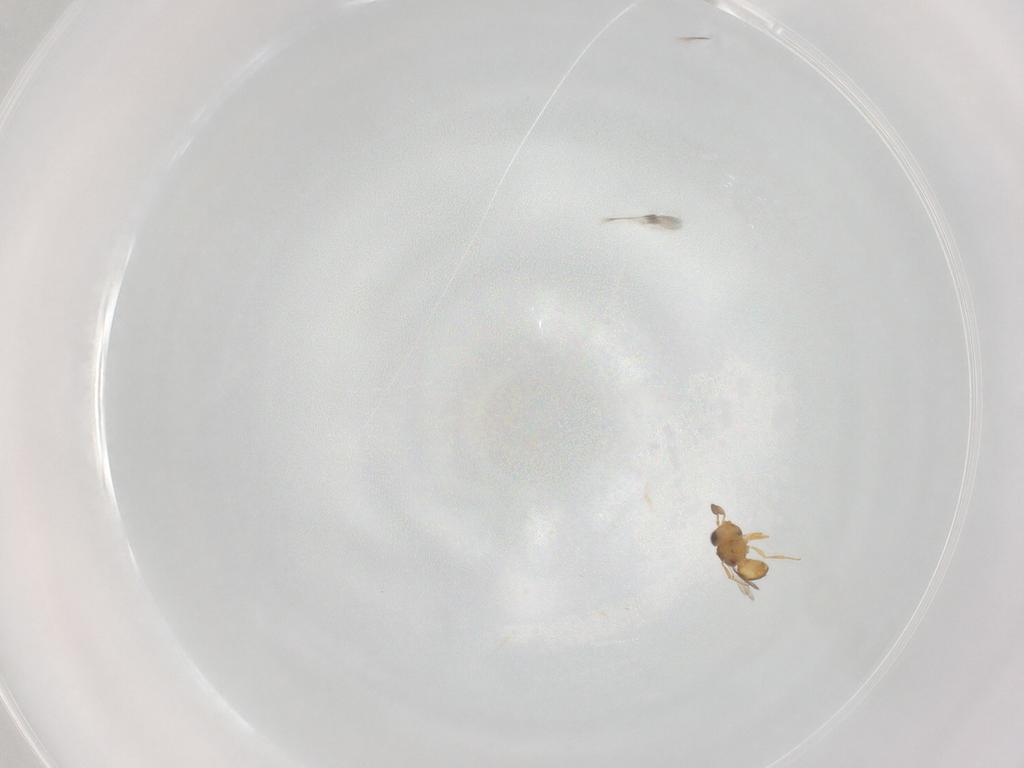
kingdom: Animalia
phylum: Arthropoda
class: Insecta
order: Hymenoptera
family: Scelionidae
